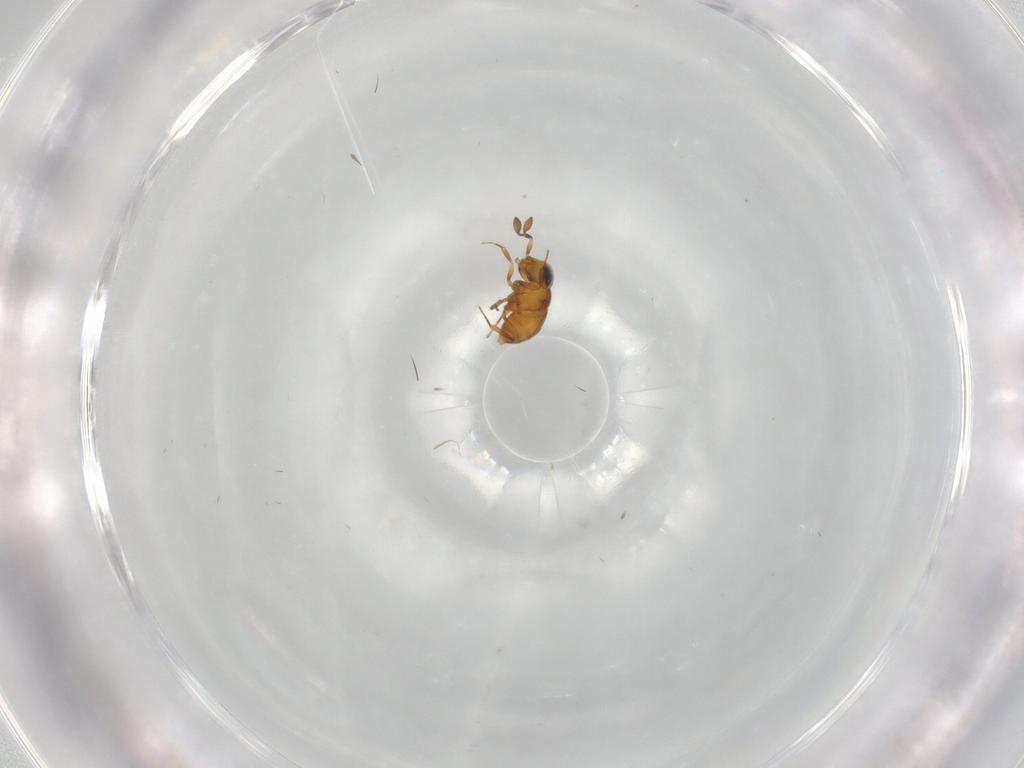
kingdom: Animalia
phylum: Arthropoda
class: Insecta
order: Hymenoptera
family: Scelionidae
